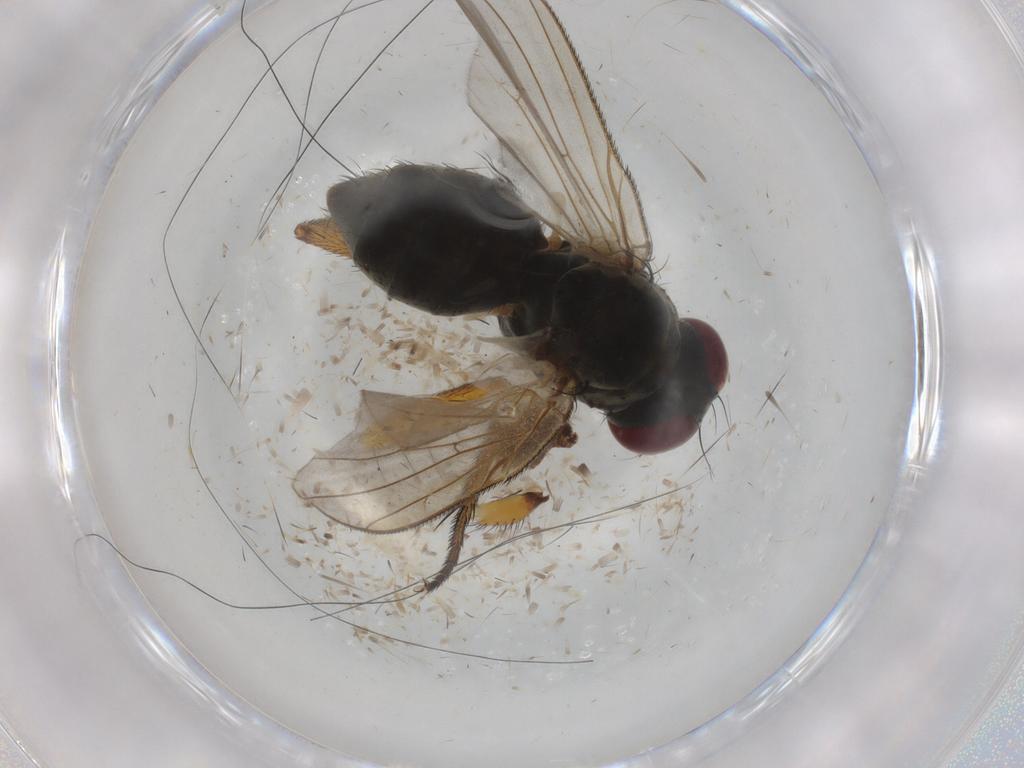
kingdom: Animalia
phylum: Arthropoda
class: Insecta
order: Diptera
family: Muscidae
